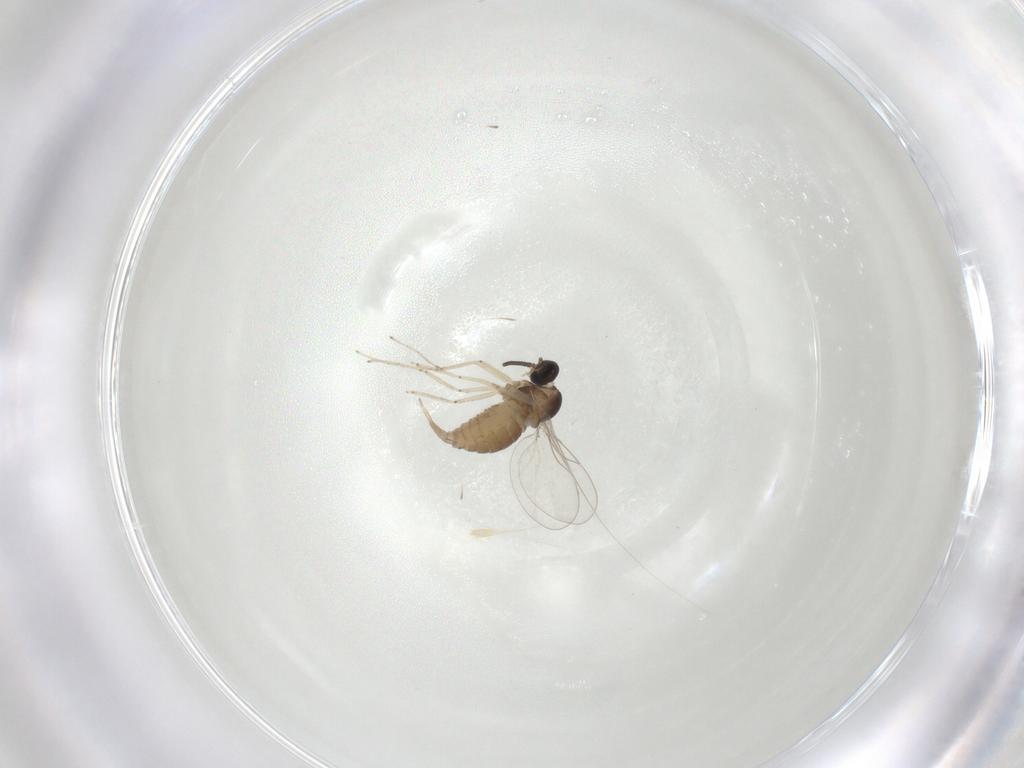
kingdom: Animalia
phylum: Arthropoda
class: Insecta
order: Diptera
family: Cecidomyiidae
